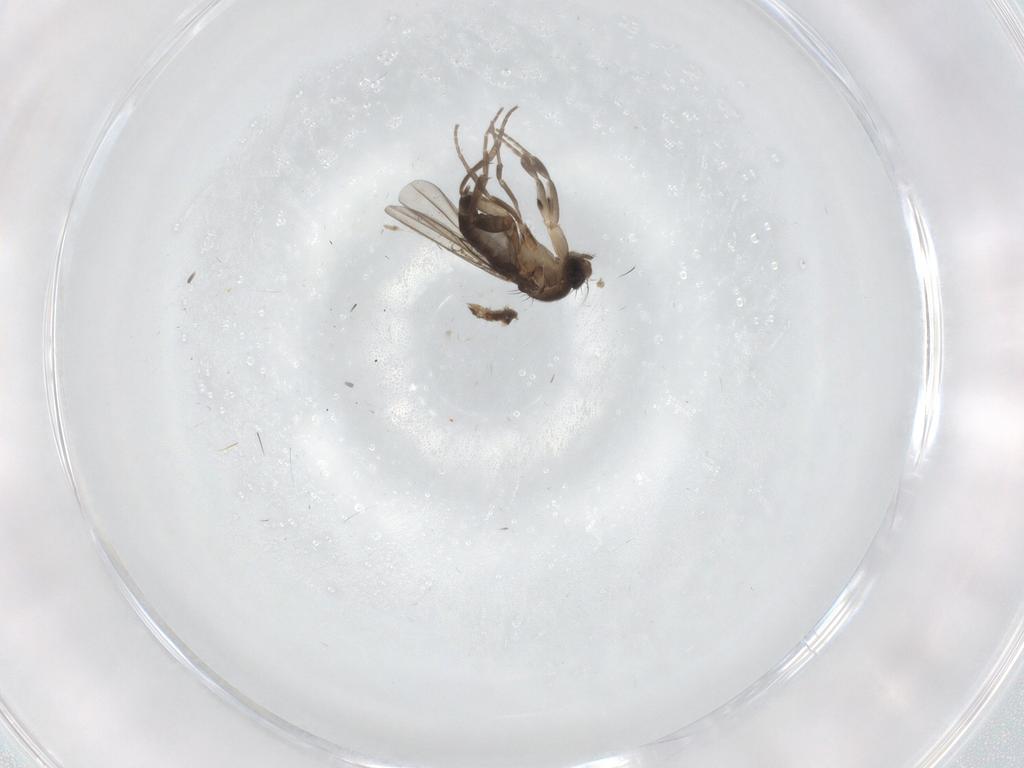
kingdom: Animalia
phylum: Arthropoda
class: Insecta
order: Diptera
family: Phoridae
